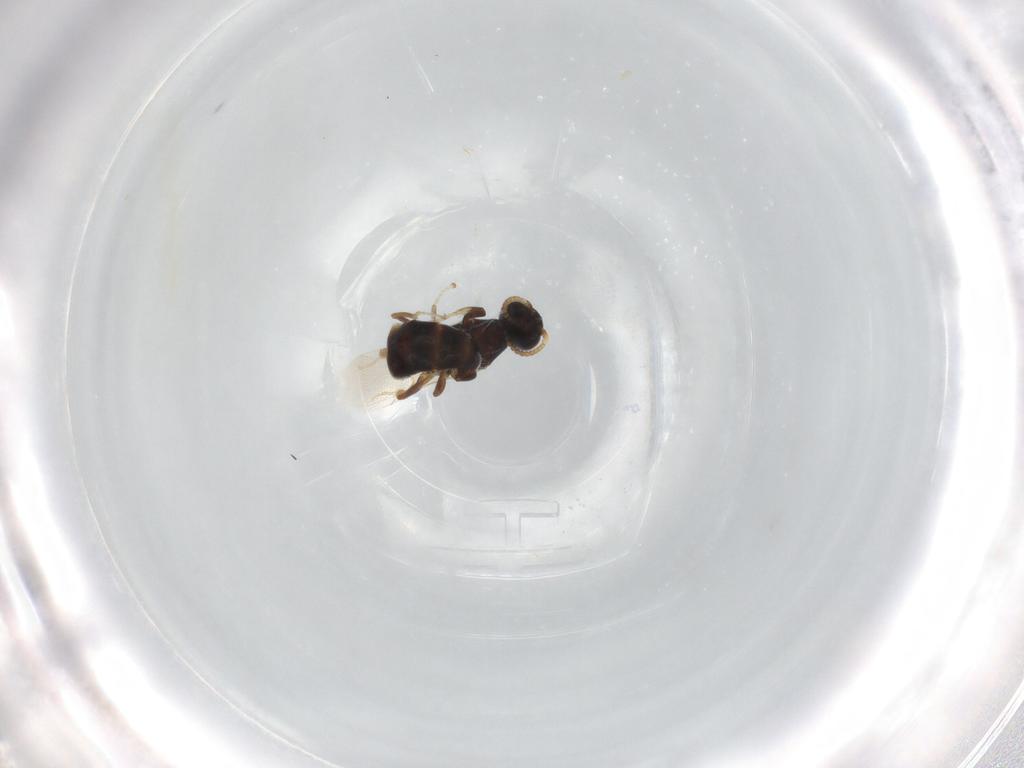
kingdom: Animalia
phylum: Arthropoda
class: Insecta
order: Hymenoptera
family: Bethylidae
